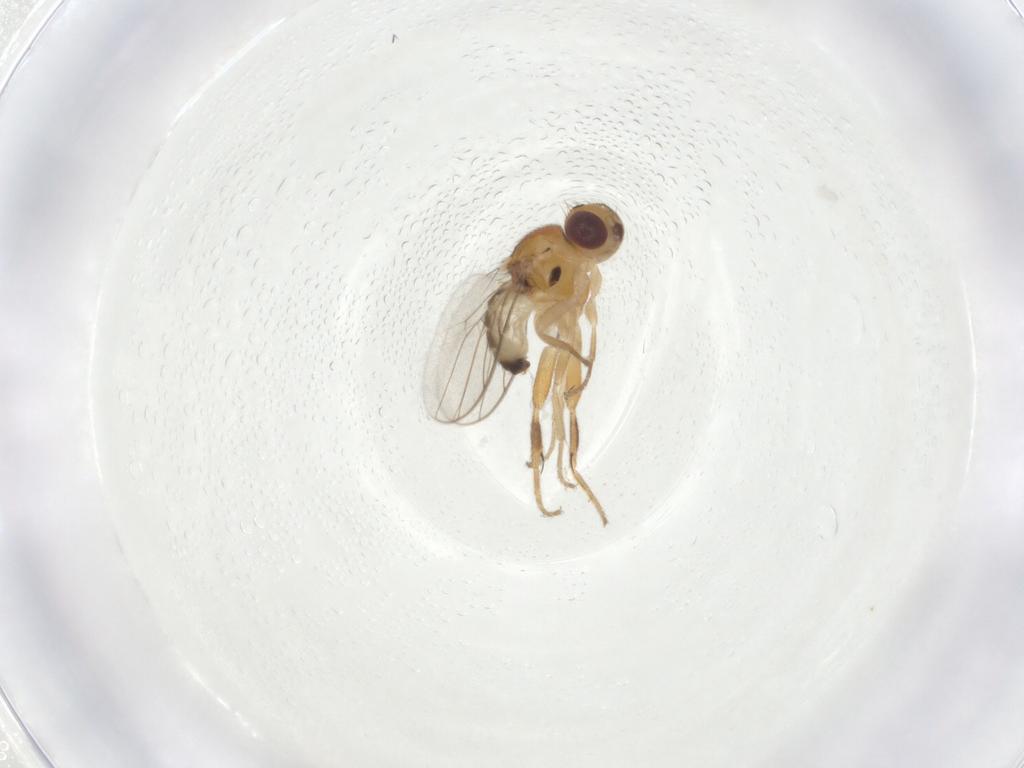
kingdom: Animalia
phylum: Arthropoda
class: Insecta
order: Diptera
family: Chloropidae
